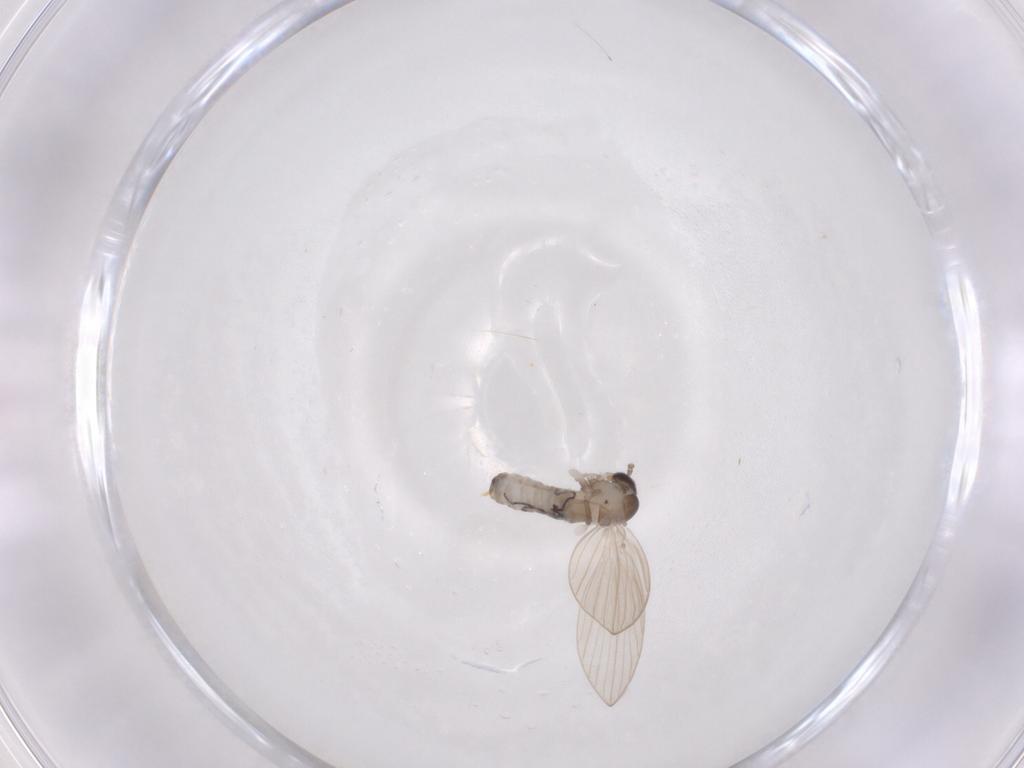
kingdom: Animalia
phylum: Arthropoda
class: Insecta
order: Diptera
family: Psychodidae
